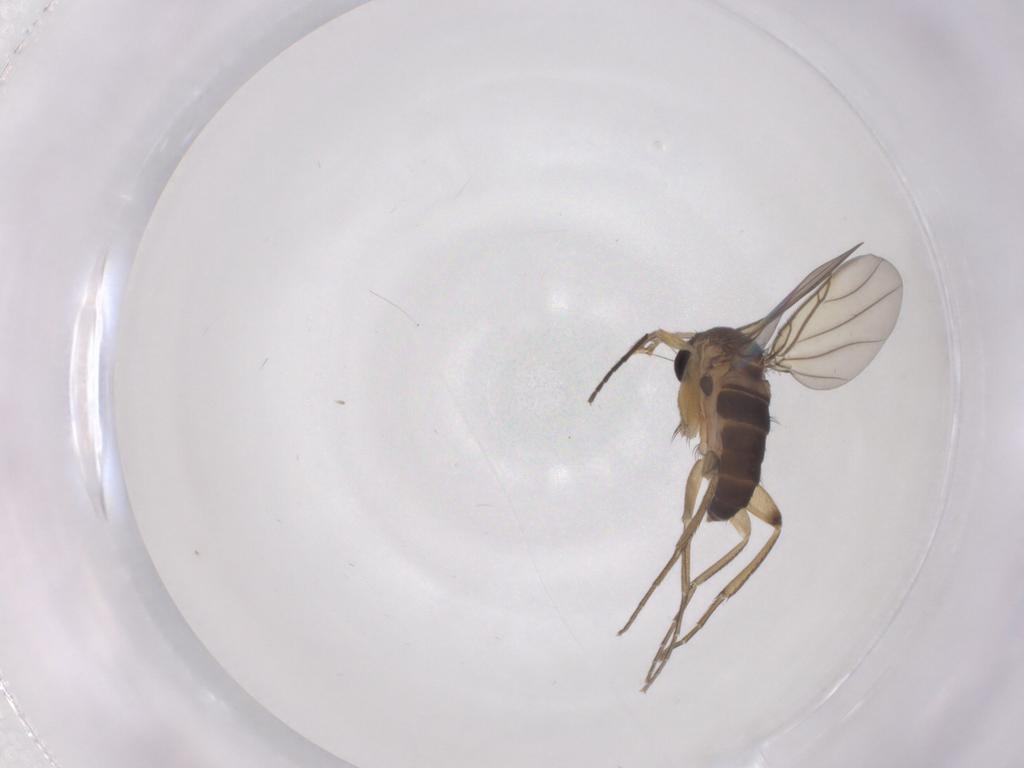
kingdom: Animalia
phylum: Arthropoda
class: Insecta
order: Diptera
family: Phoridae
